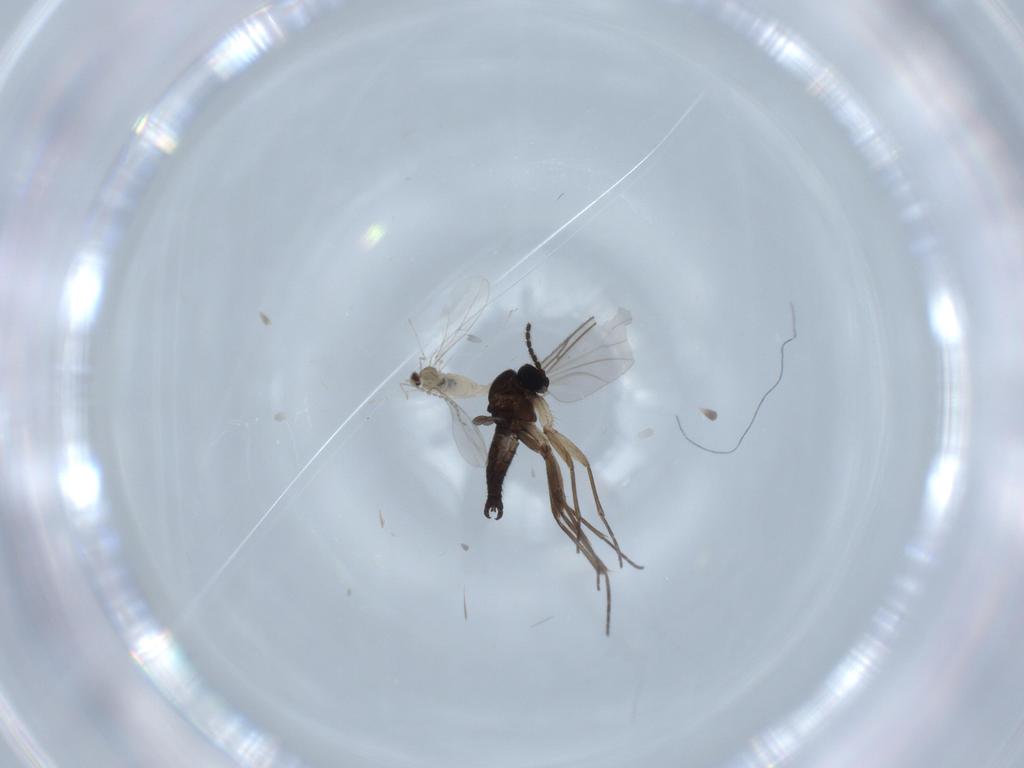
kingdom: Animalia
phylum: Arthropoda
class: Insecta
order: Diptera
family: Sciaridae
